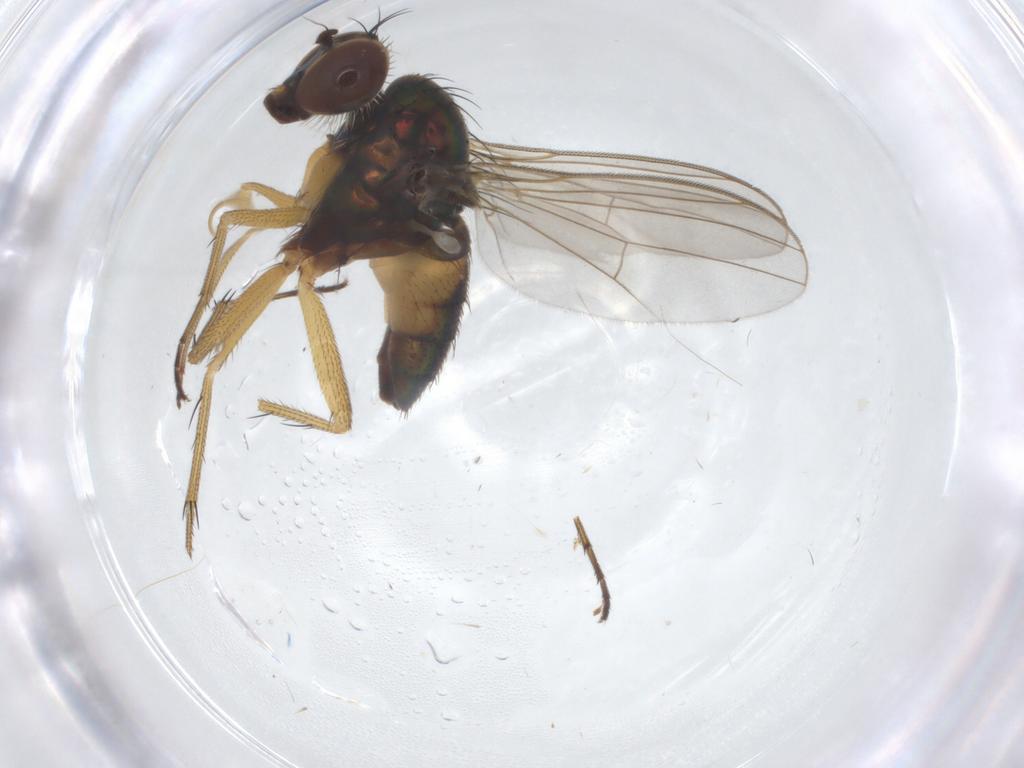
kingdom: Animalia
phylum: Arthropoda
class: Insecta
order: Diptera
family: Dolichopodidae
